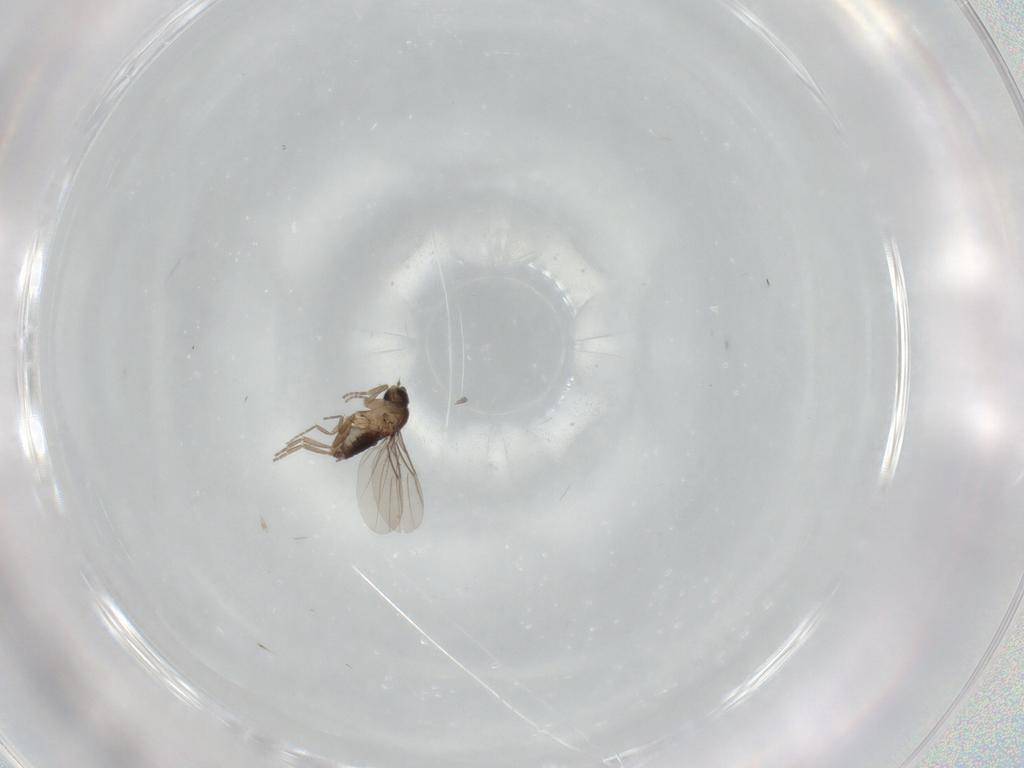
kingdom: Animalia
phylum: Arthropoda
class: Insecta
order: Diptera
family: Phoridae
